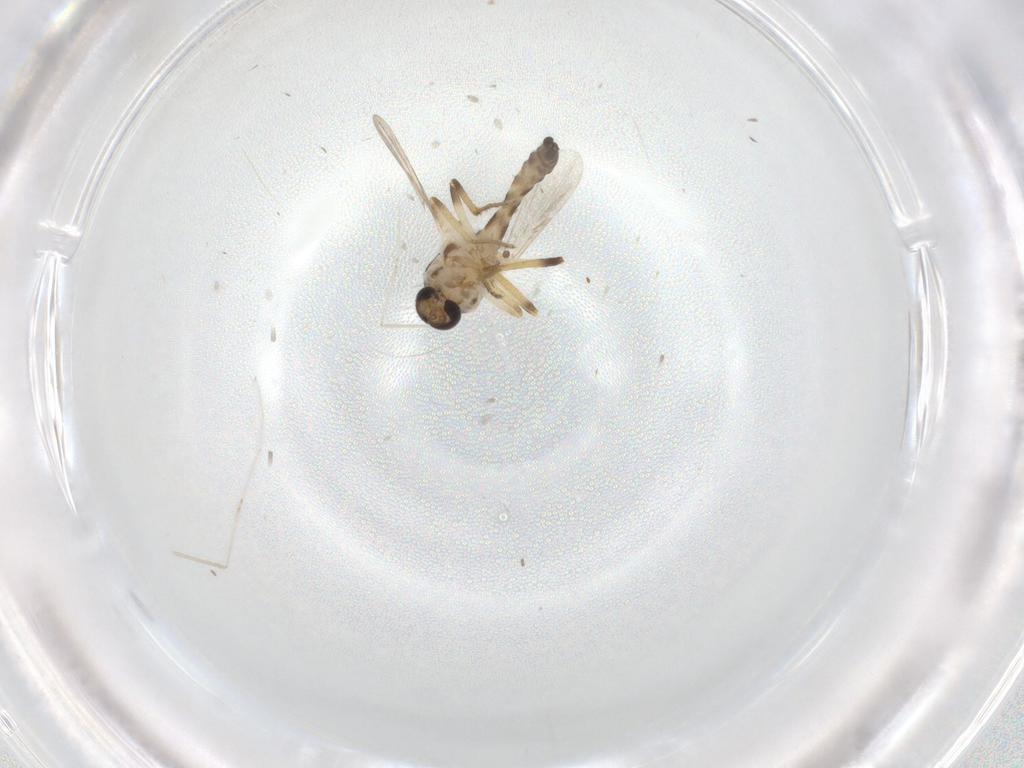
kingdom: Animalia
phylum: Arthropoda
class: Insecta
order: Diptera
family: Ceratopogonidae
